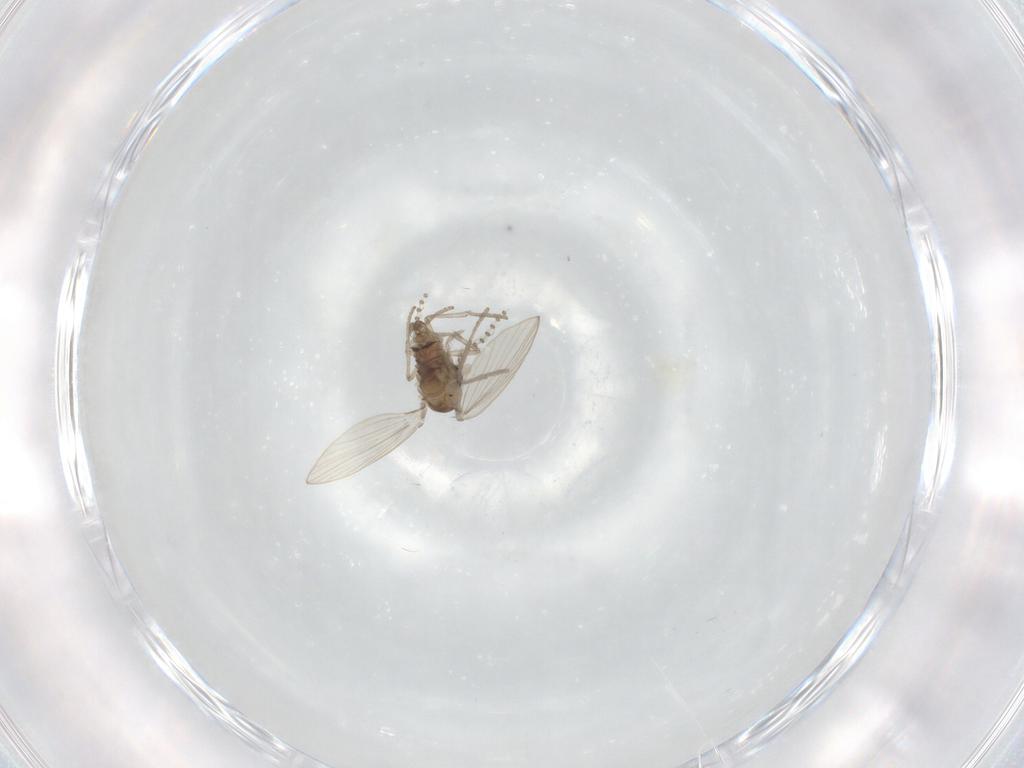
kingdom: Animalia
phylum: Arthropoda
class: Insecta
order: Diptera
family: Psychodidae
